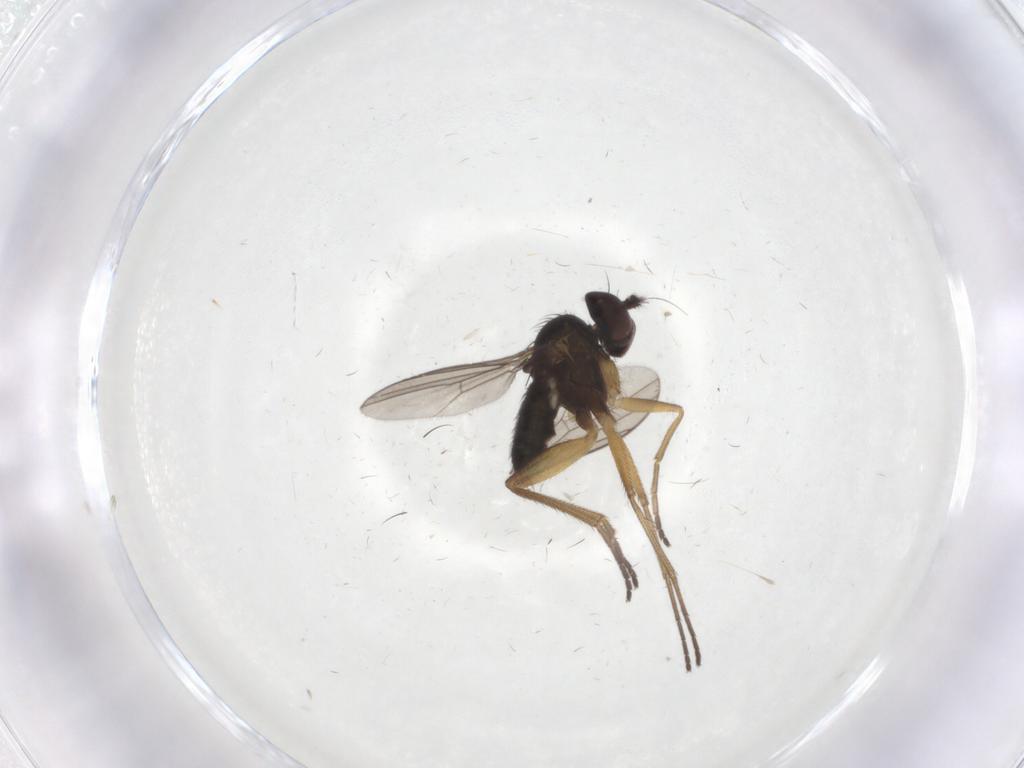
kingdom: Animalia
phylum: Arthropoda
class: Insecta
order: Diptera
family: Dolichopodidae
